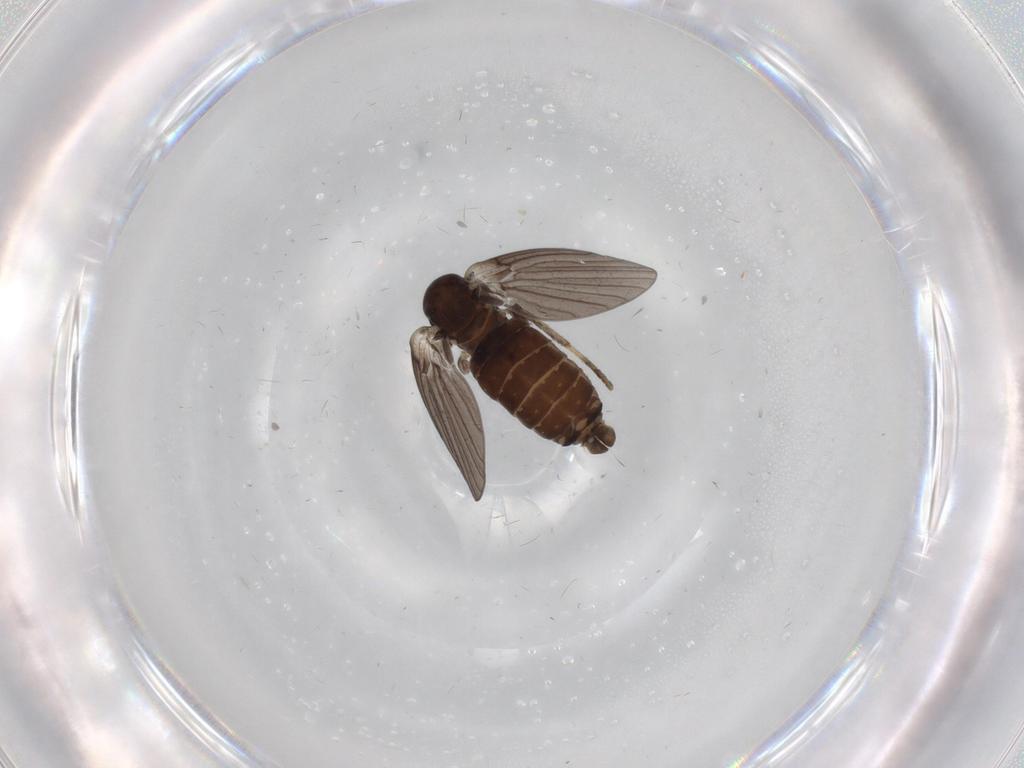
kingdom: Animalia
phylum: Arthropoda
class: Insecta
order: Diptera
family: Psychodidae
